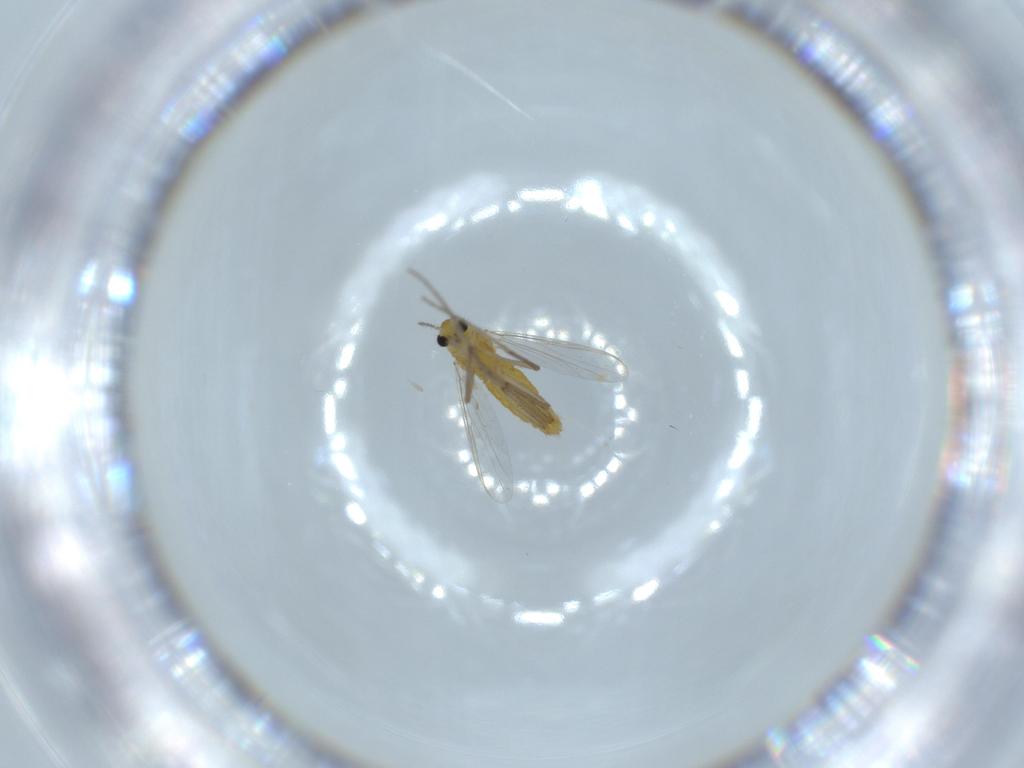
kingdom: Animalia
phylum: Arthropoda
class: Insecta
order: Diptera
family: Chironomidae
